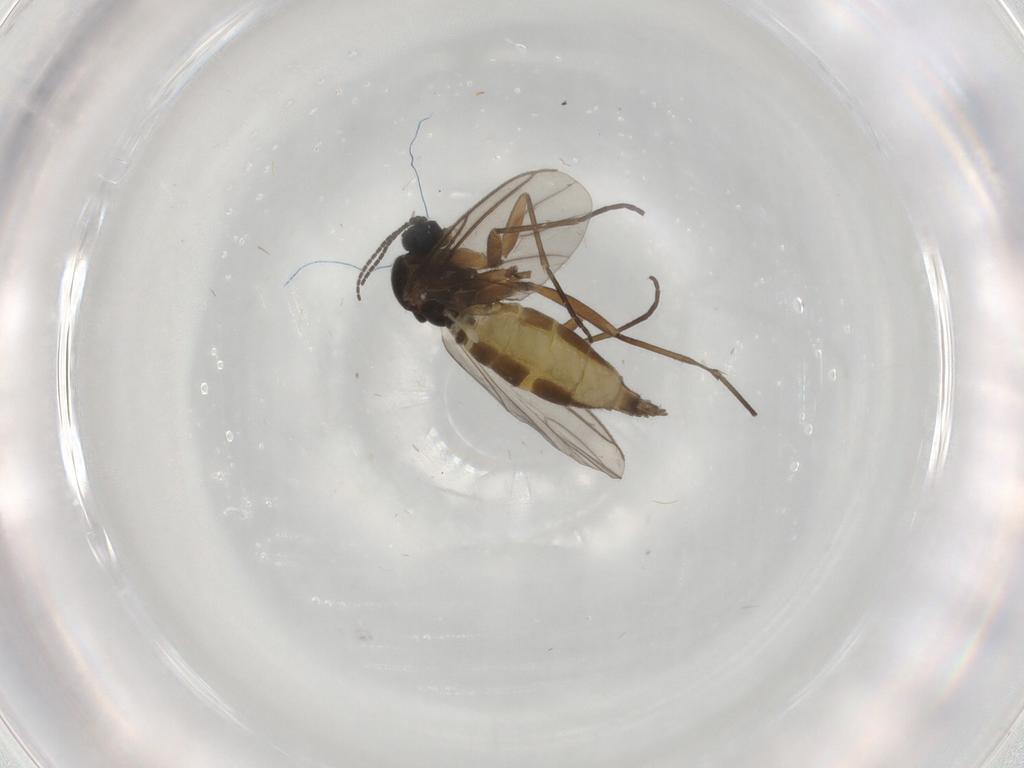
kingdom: Animalia
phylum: Arthropoda
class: Insecta
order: Diptera
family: Sciaridae
